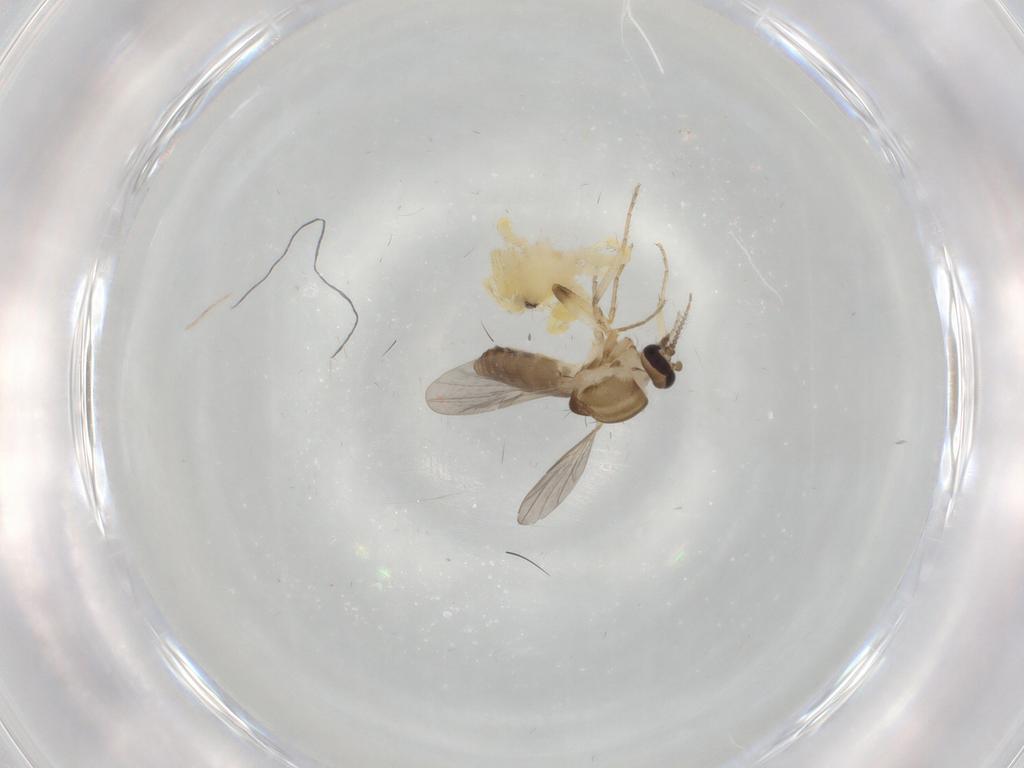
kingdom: Animalia
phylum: Arthropoda
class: Insecta
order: Diptera
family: Ceratopogonidae
